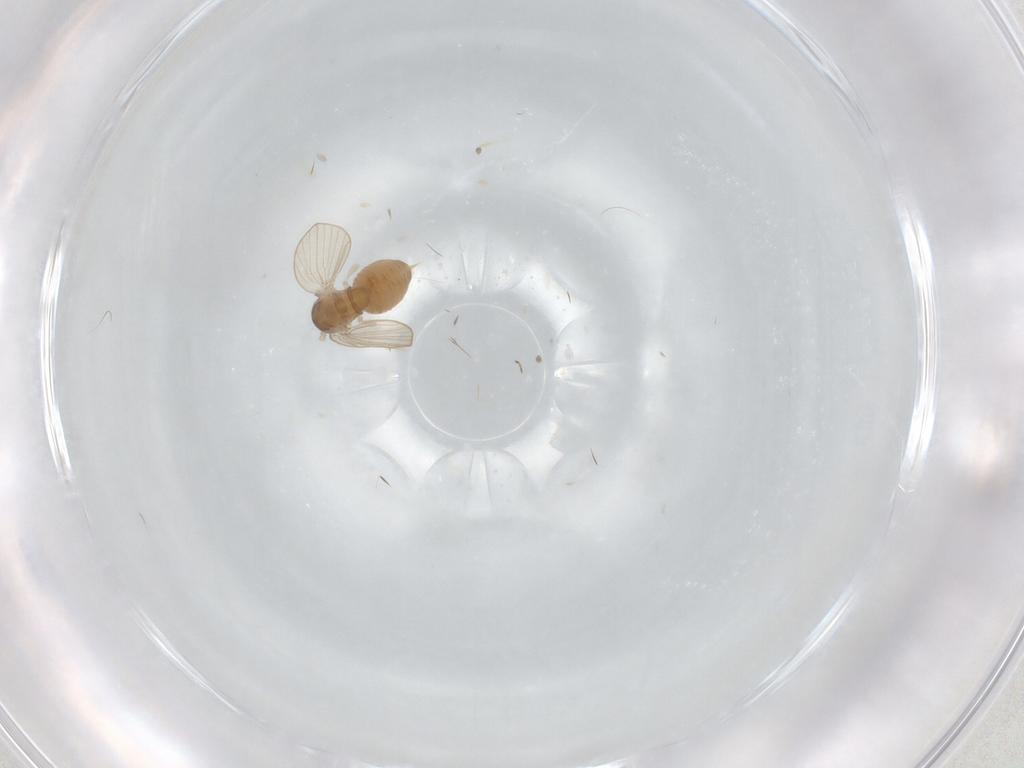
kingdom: Animalia
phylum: Arthropoda
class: Insecta
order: Diptera
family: Psychodidae
